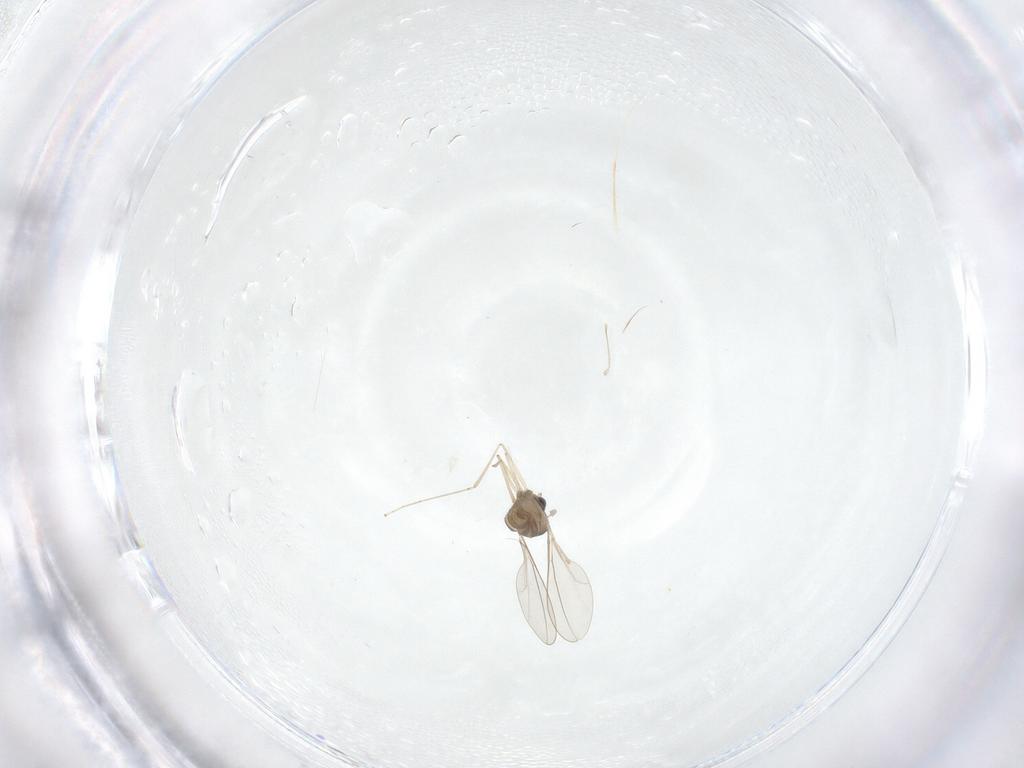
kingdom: Animalia
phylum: Arthropoda
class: Insecta
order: Diptera
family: Cecidomyiidae
